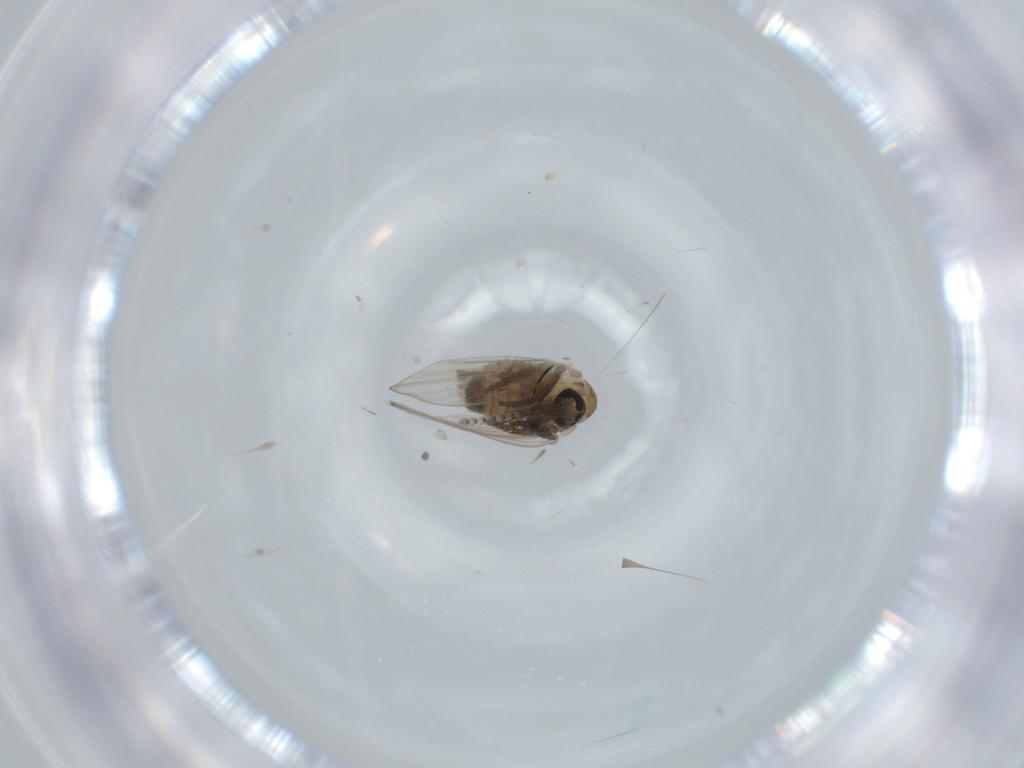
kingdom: Animalia
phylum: Arthropoda
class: Insecta
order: Diptera
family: Psychodidae
